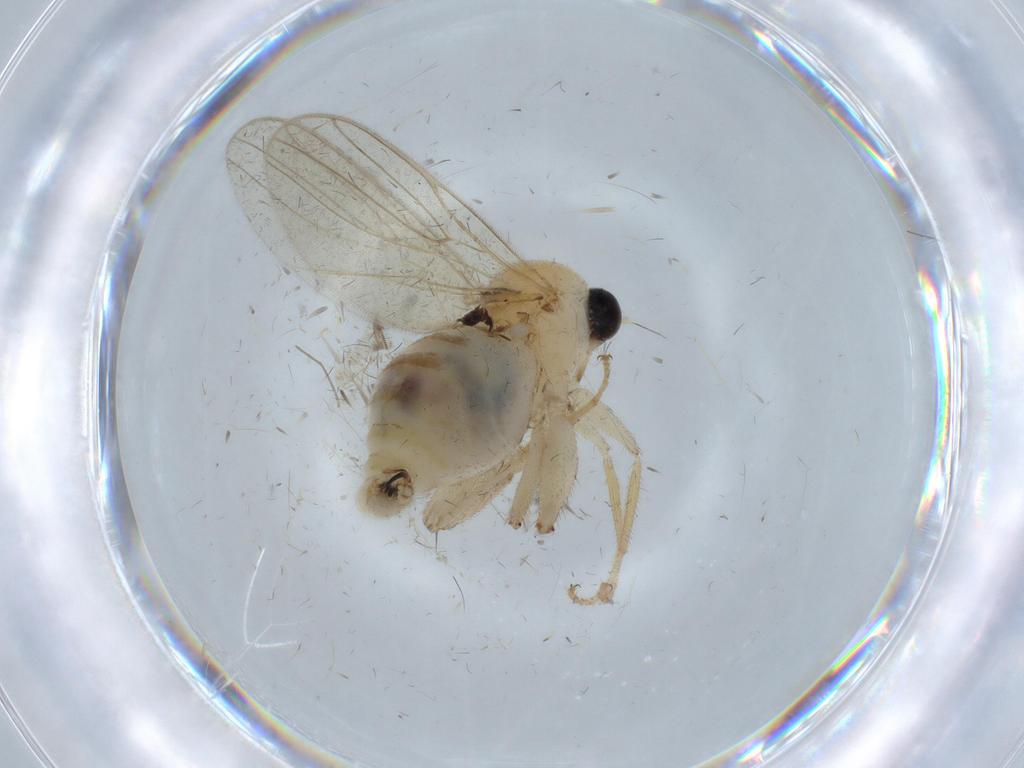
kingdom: Animalia
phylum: Arthropoda
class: Insecta
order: Diptera
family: Hybotidae
